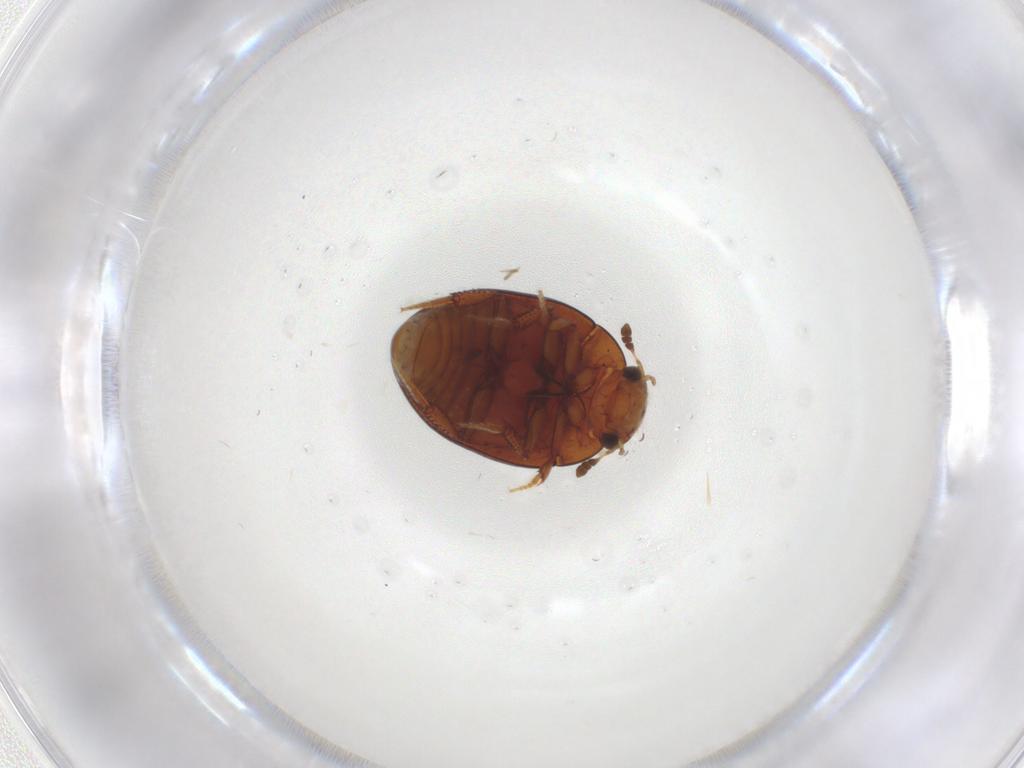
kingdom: Animalia
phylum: Arthropoda
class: Insecta
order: Coleoptera
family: Hydrophilidae
